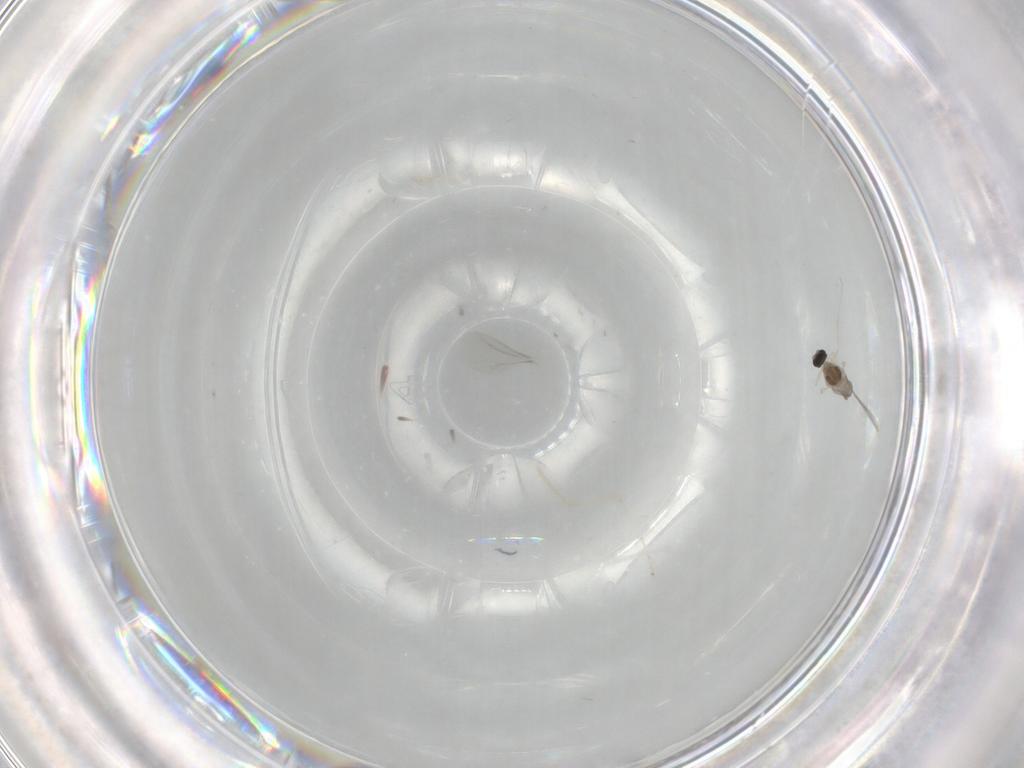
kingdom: Animalia
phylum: Arthropoda
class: Insecta
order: Diptera
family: Cecidomyiidae
